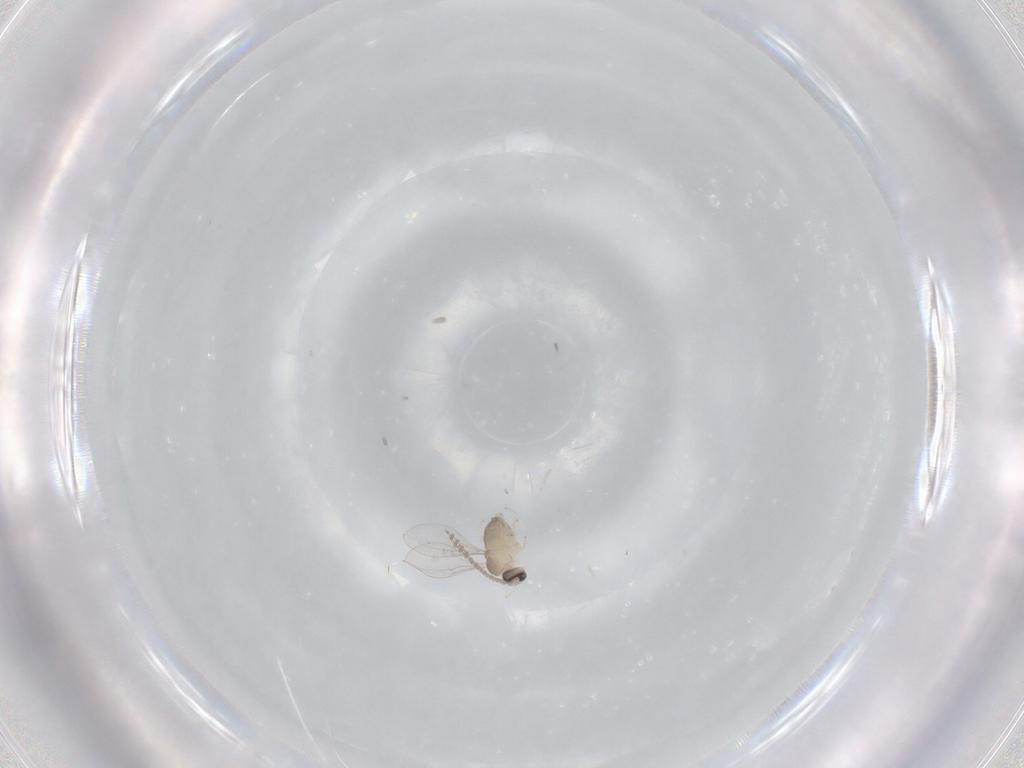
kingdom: Animalia
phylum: Arthropoda
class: Insecta
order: Diptera
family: Cecidomyiidae
